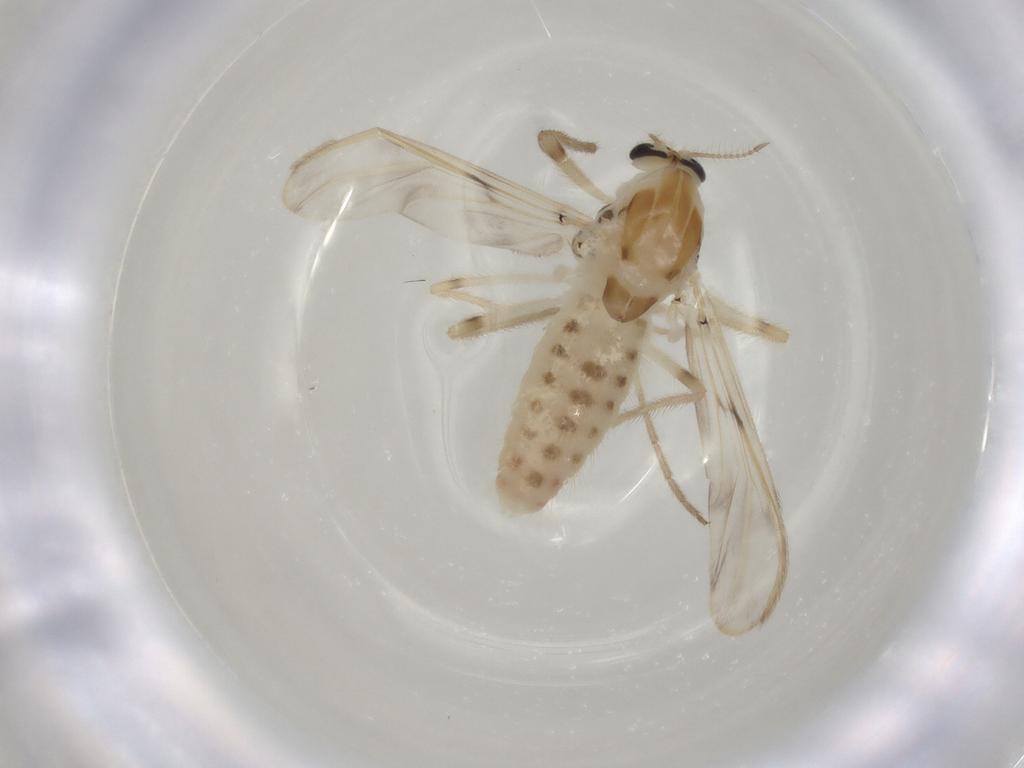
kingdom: Animalia
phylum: Arthropoda
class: Insecta
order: Diptera
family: Chironomidae
